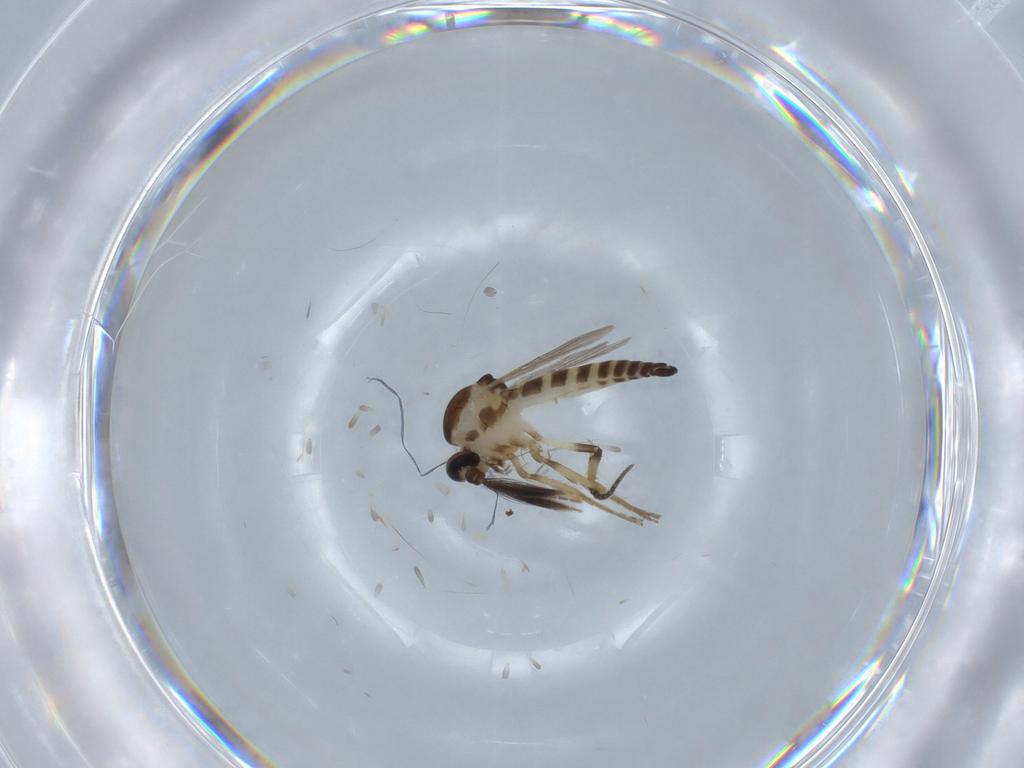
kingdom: Animalia
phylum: Arthropoda
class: Insecta
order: Diptera
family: Ceratopogonidae
